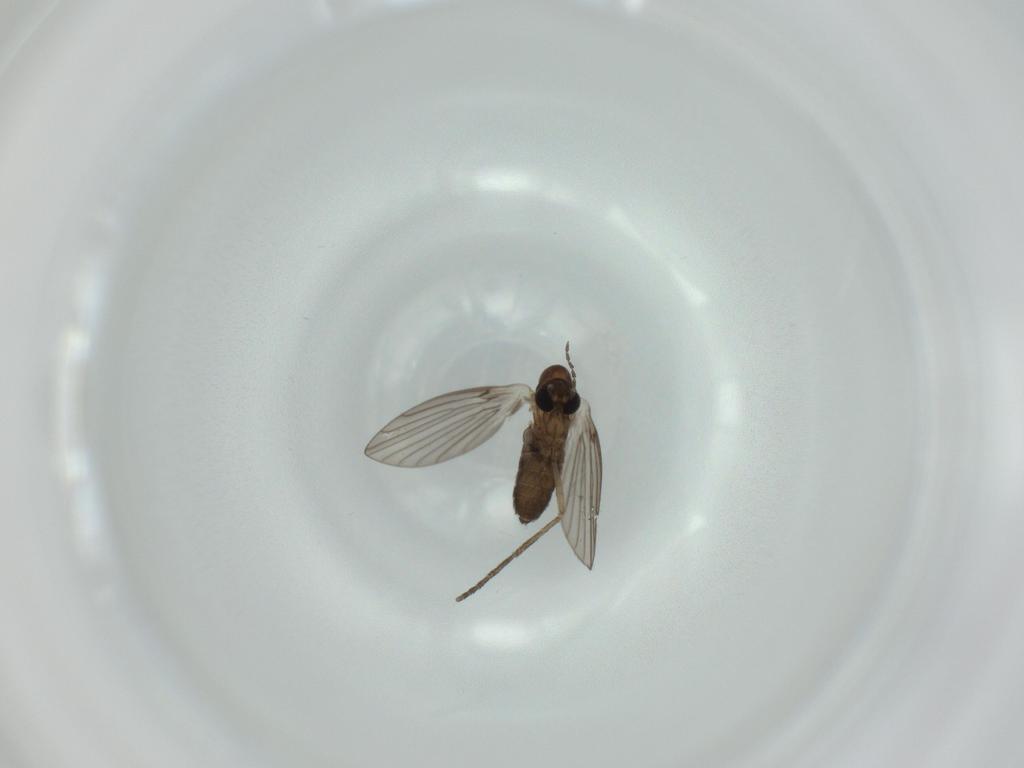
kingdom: Animalia
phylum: Arthropoda
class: Insecta
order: Diptera
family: Psychodidae
